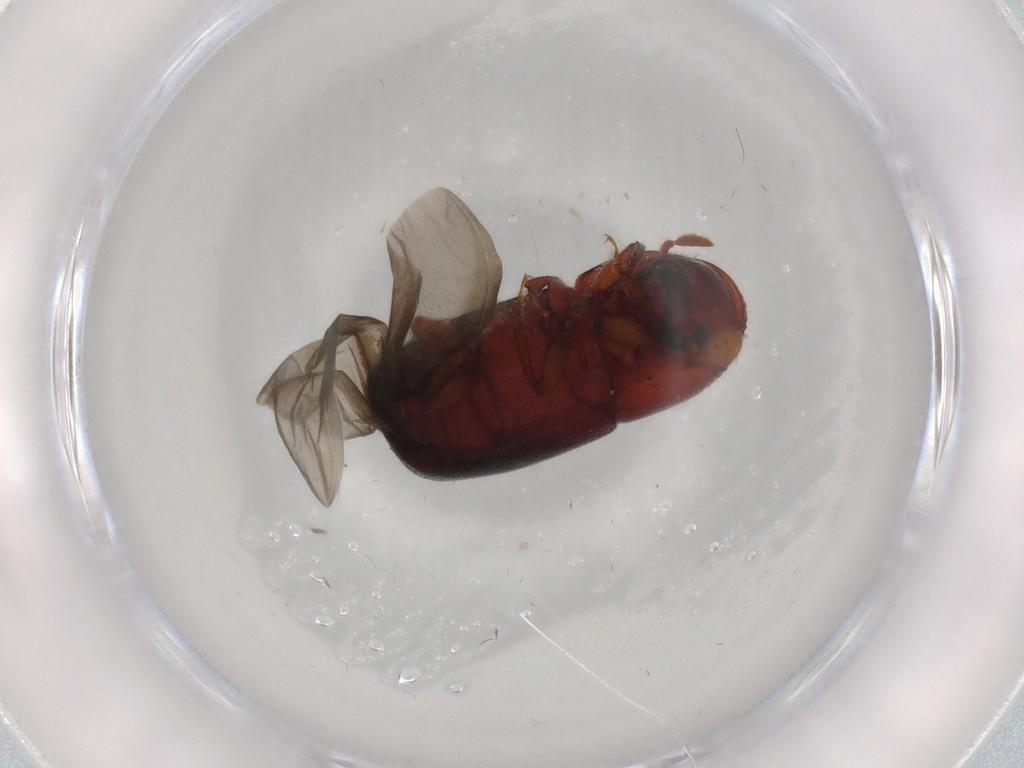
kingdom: Animalia
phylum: Arthropoda
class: Insecta
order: Coleoptera
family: Curculionidae
